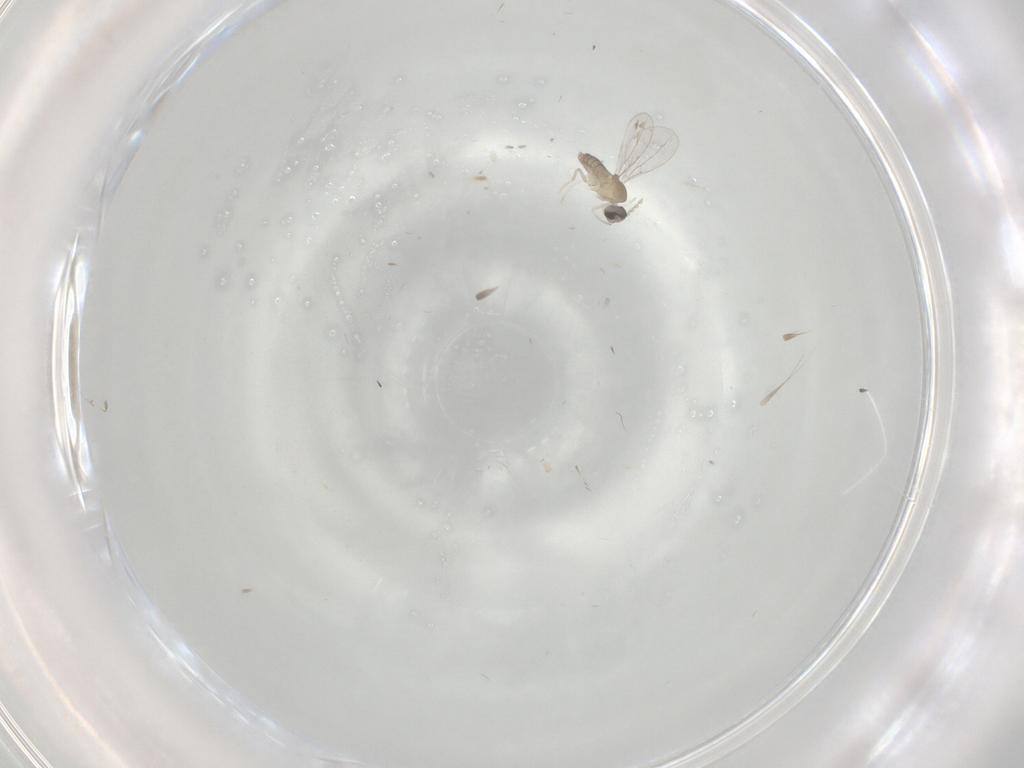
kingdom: Animalia
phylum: Arthropoda
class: Insecta
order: Diptera
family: Cecidomyiidae
